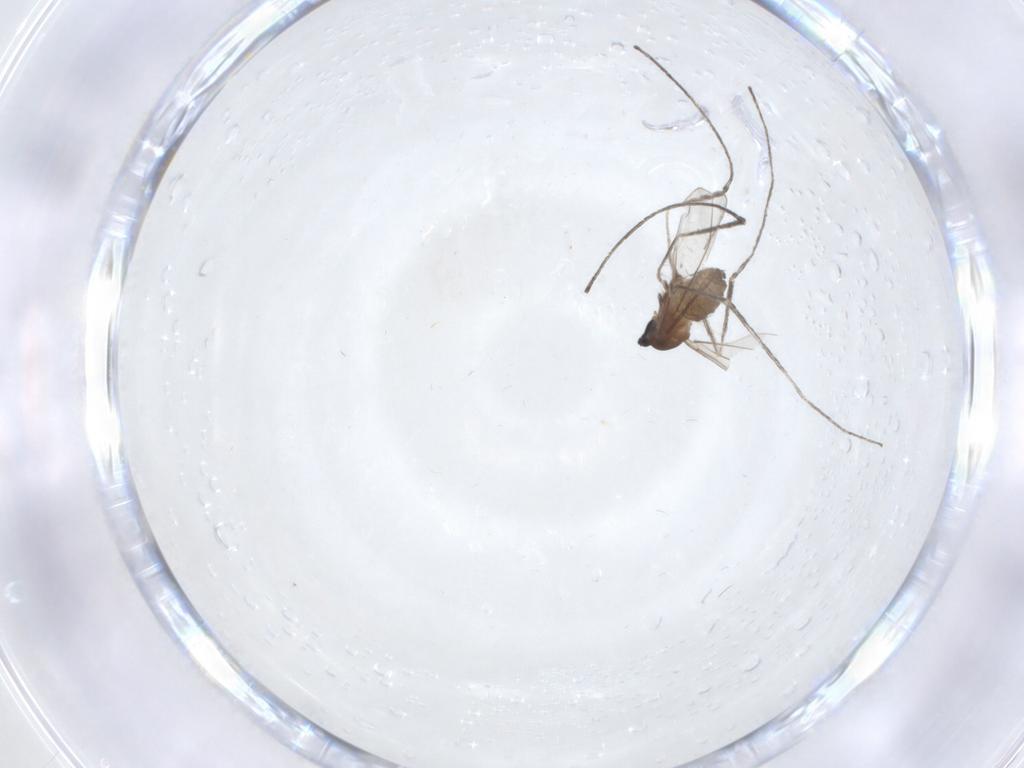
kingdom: Animalia
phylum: Arthropoda
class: Insecta
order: Diptera
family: Cecidomyiidae
